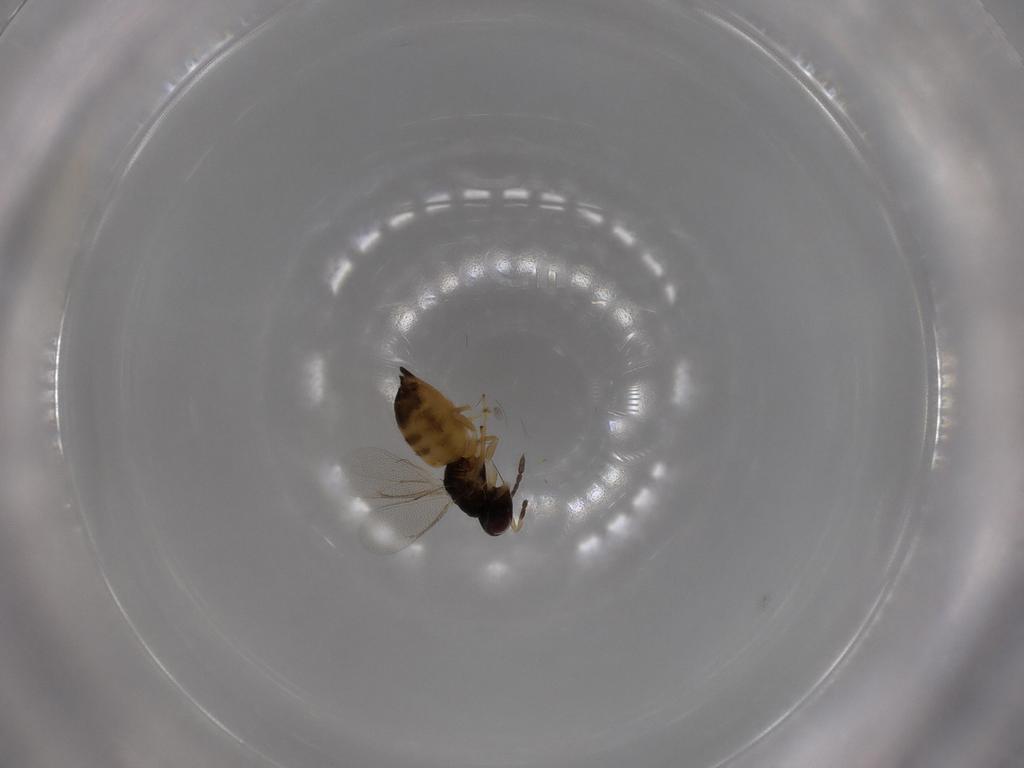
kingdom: Animalia
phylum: Arthropoda
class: Insecta
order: Hymenoptera
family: Eulophidae
